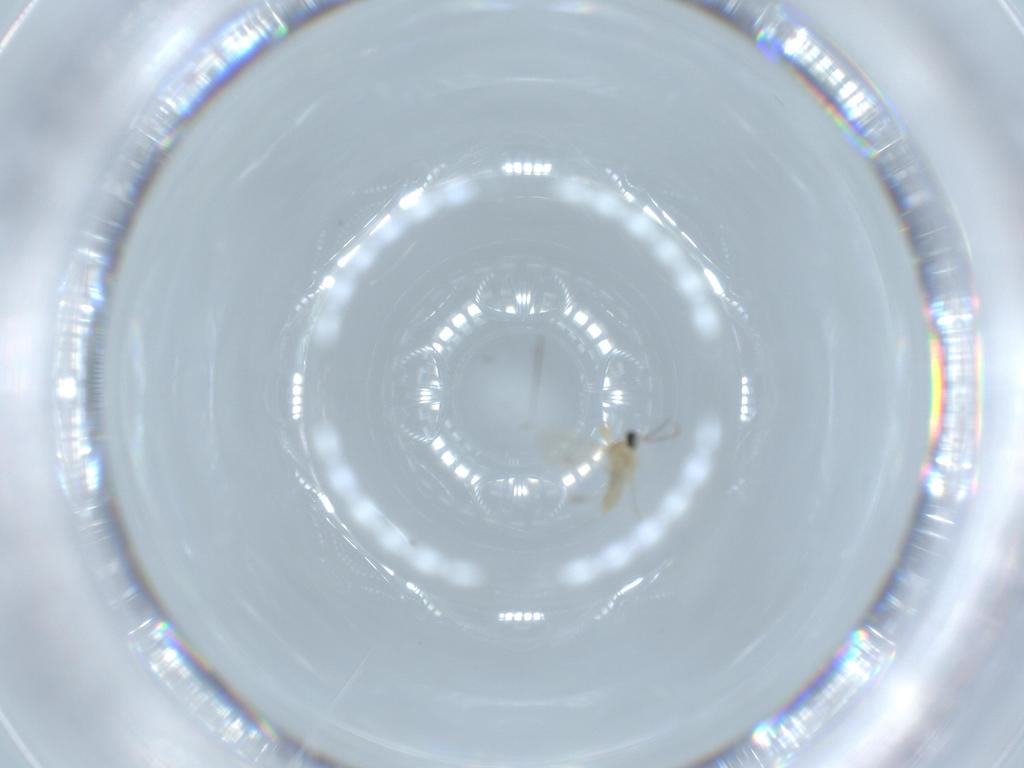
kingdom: Animalia
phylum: Arthropoda
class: Insecta
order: Diptera
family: Cecidomyiidae
